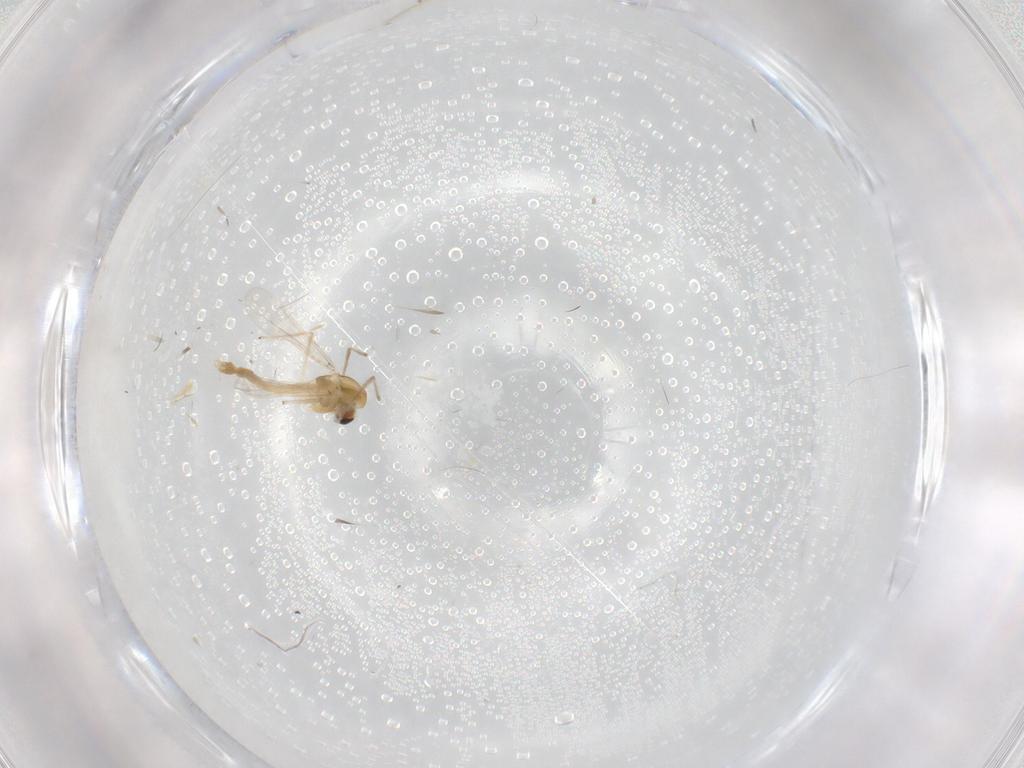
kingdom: Animalia
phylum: Arthropoda
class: Insecta
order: Diptera
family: Chironomidae
